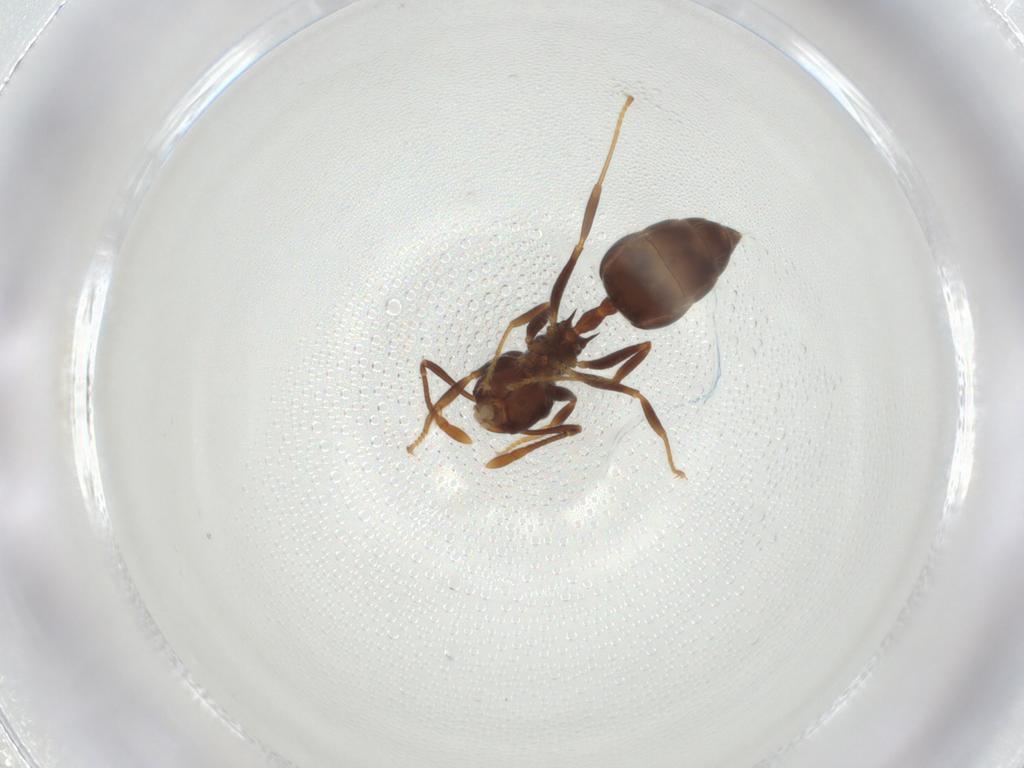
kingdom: Animalia
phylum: Arthropoda
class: Insecta
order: Hymenoptera
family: Formicidae
